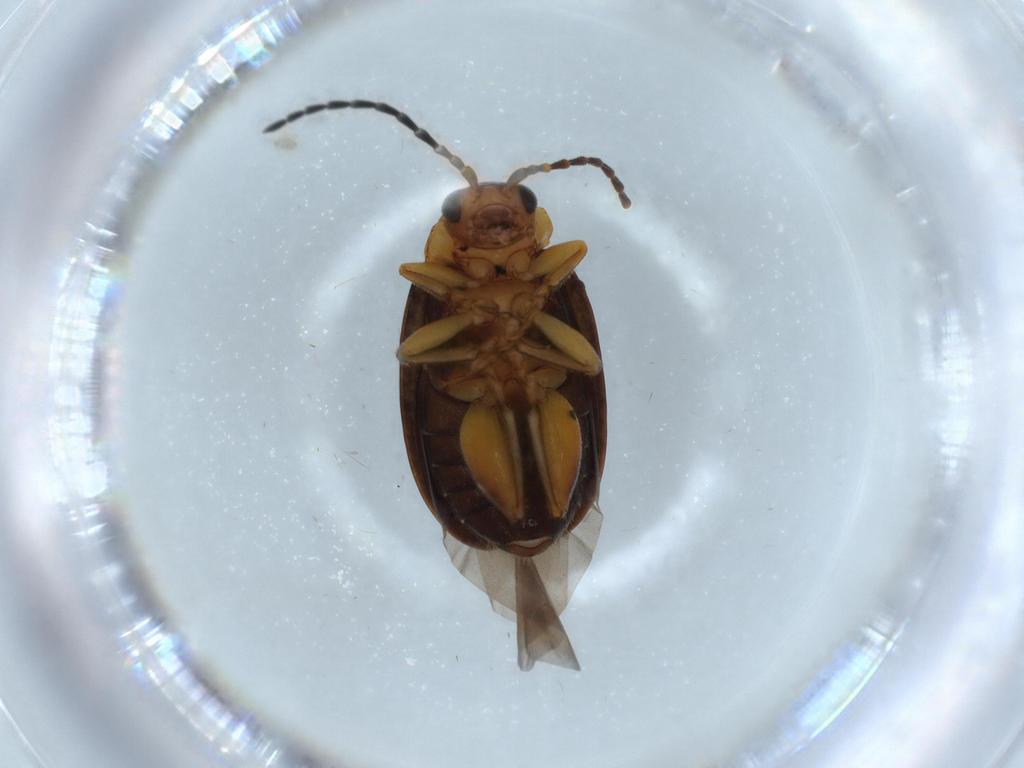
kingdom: Animalia
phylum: Arthropoda
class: Insecta
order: Coleoptera
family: Chrysomelidae
